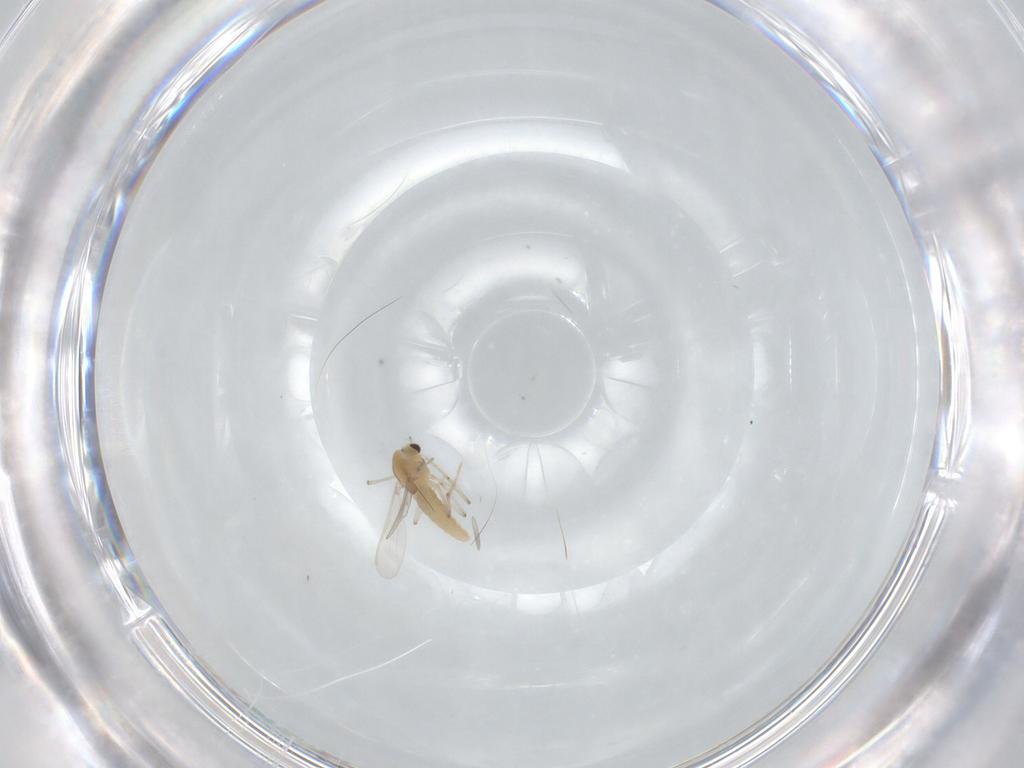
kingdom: Animalia
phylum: Arthropoda
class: Insecta
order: Diptera
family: Chironomidae
